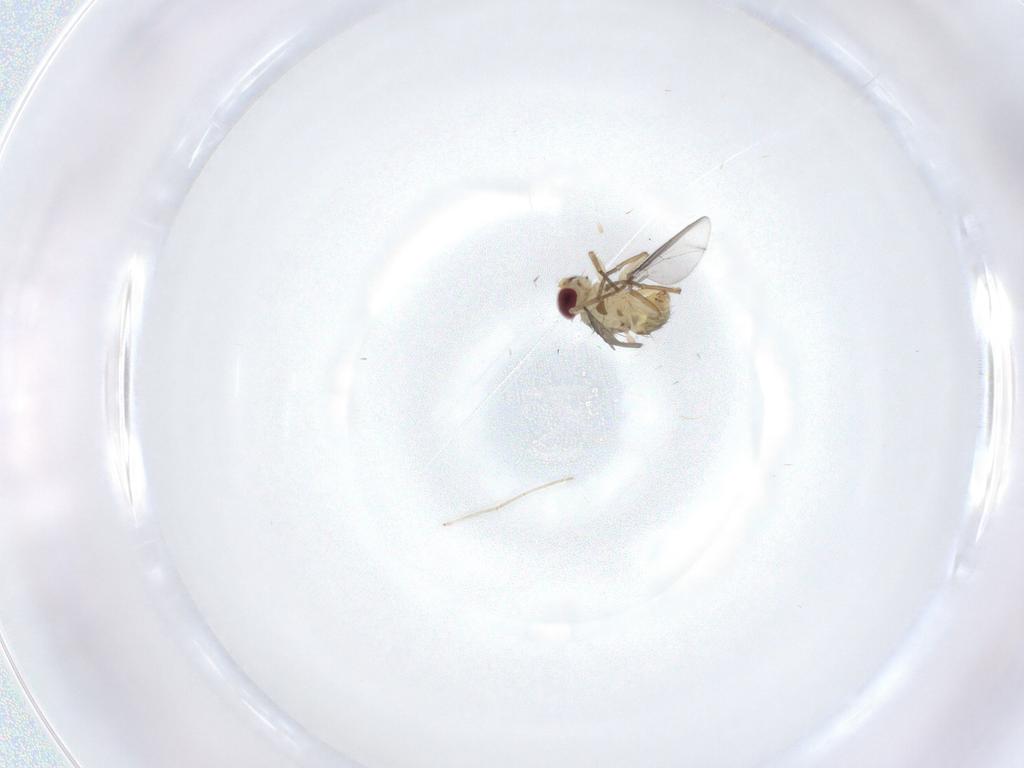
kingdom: Animalia
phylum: Arthropoda
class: Insecta
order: Diptera
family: Agromyzidae
